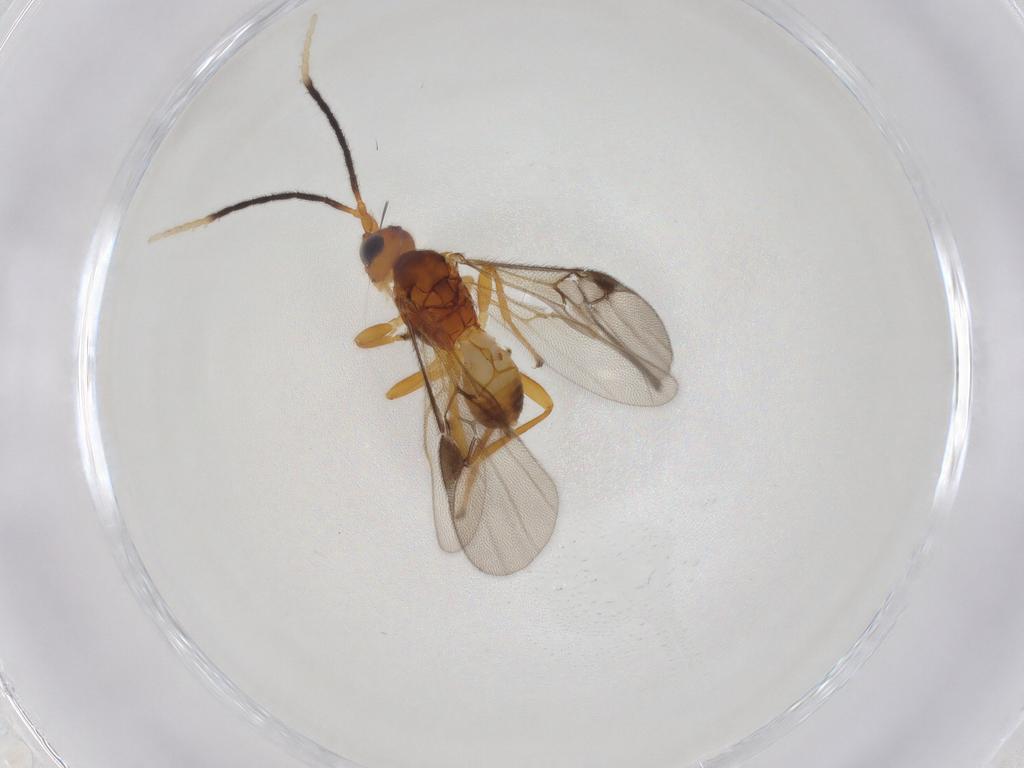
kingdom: Animalia
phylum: Arthropoda
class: Insecta
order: Hymenoptera
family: Braconidae
